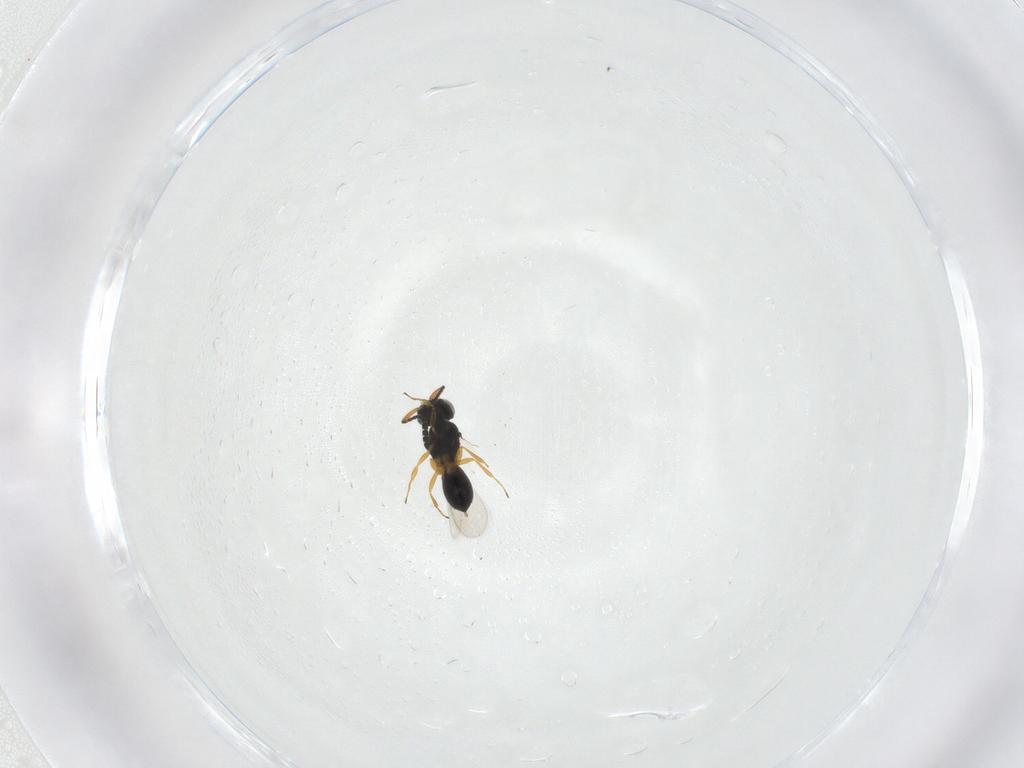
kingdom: Animalia
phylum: Arthropoda
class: Insecta
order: Hymenoptera
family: Scelionidae
